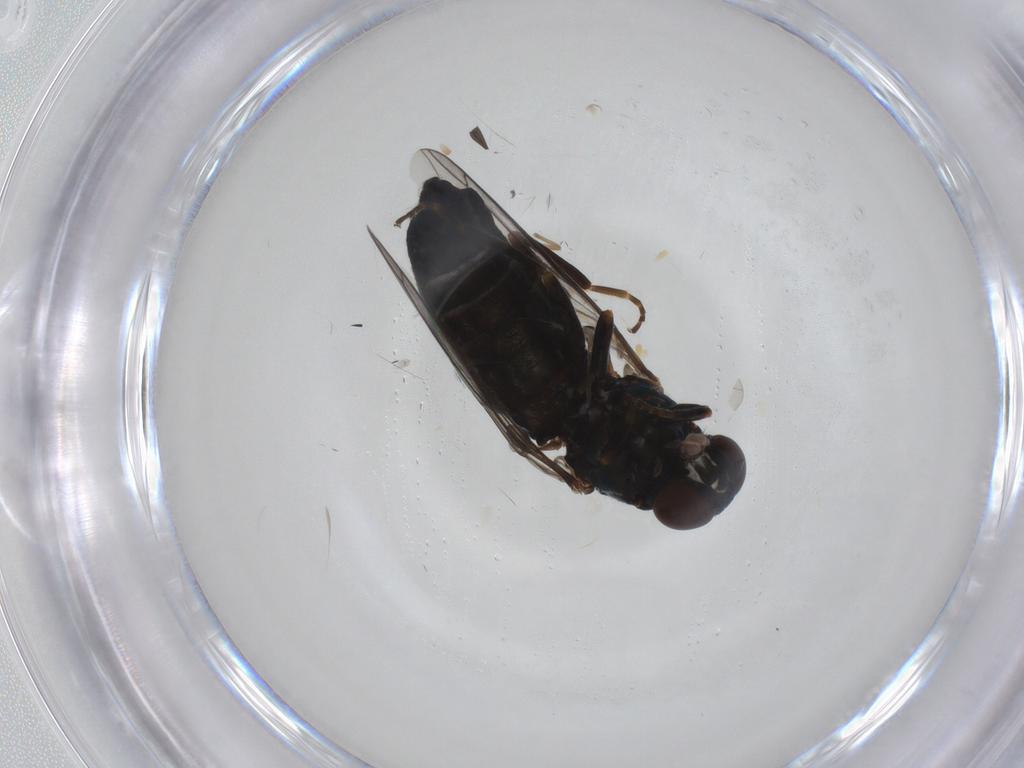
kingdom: Animalia
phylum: Arthropoda
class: Insecta
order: Diptera
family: Scenopinidae
